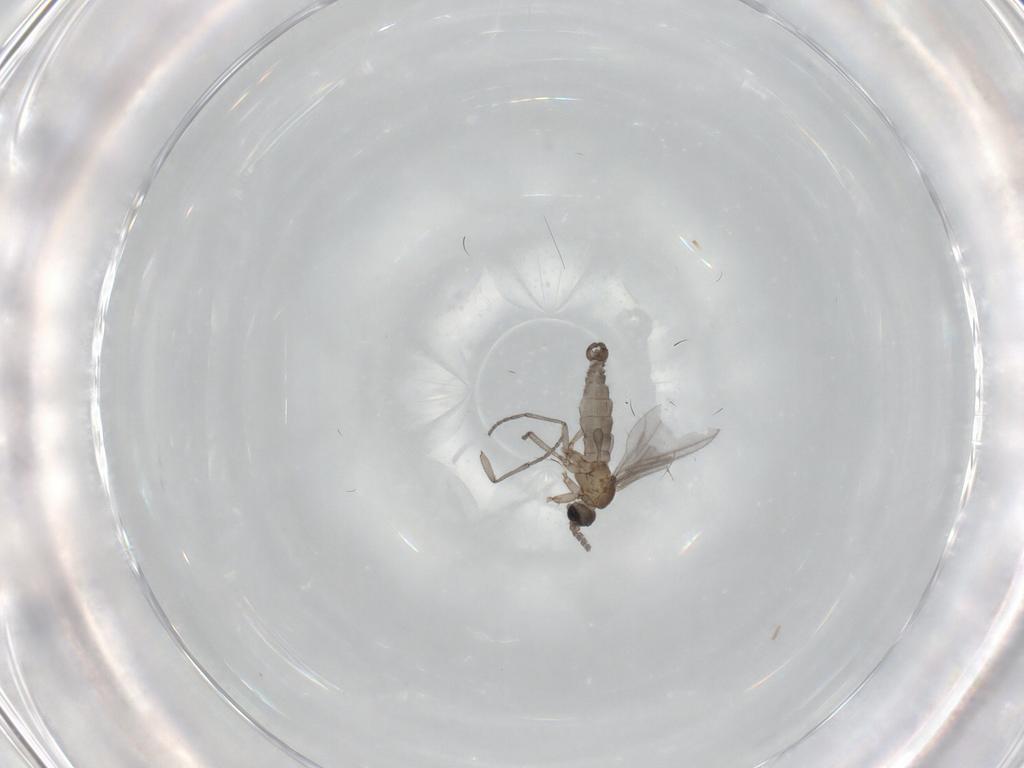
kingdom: Animalia
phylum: Arthropoda
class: Insecta
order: Diptera
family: Sciaridae
